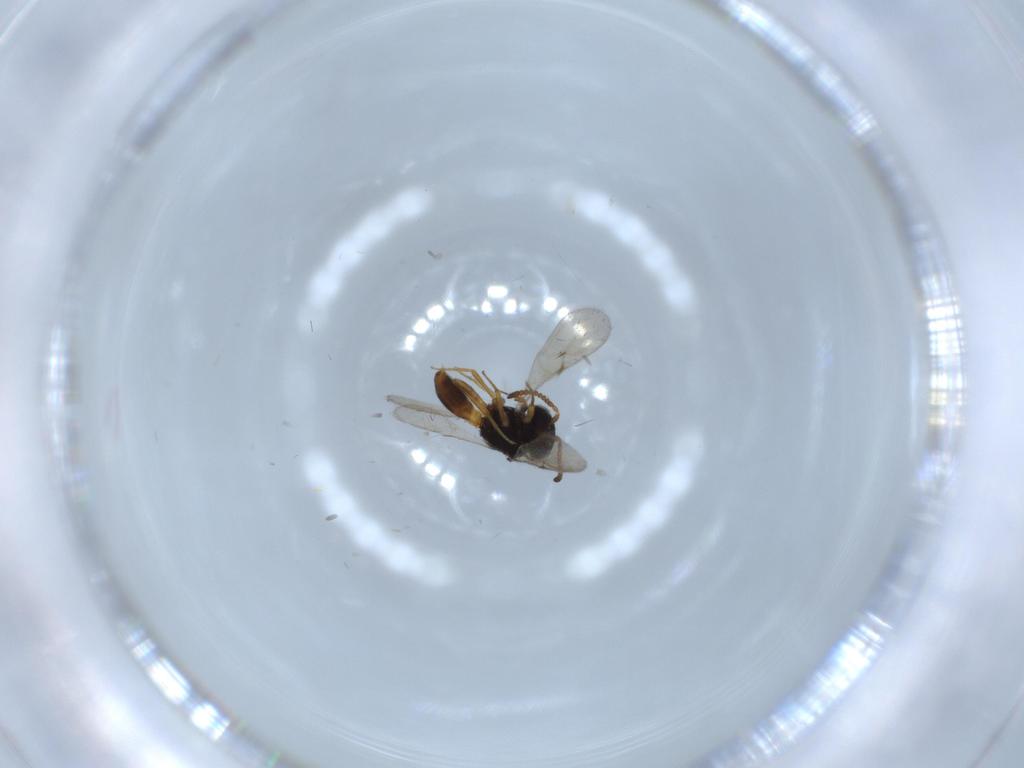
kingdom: Animalia
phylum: Arthropoda
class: Insecta
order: Hymenoptera
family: Scelionidae
